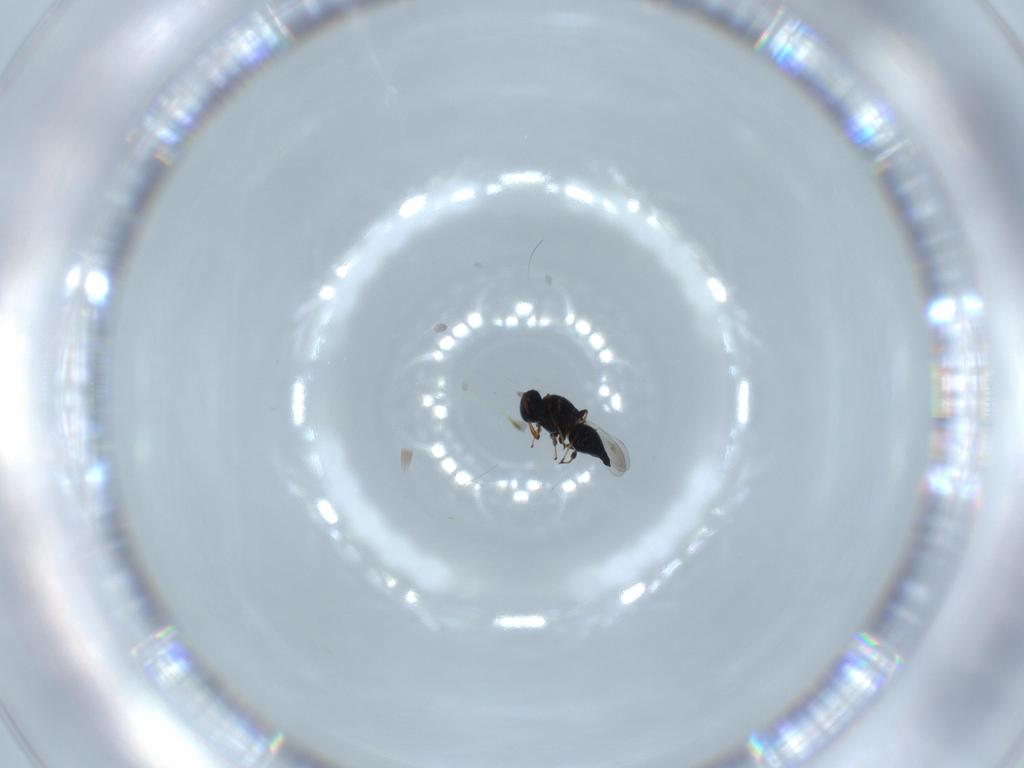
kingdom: Animalia
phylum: Arthropoda
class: Insecta
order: Hymenoptera
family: Platygastridae
